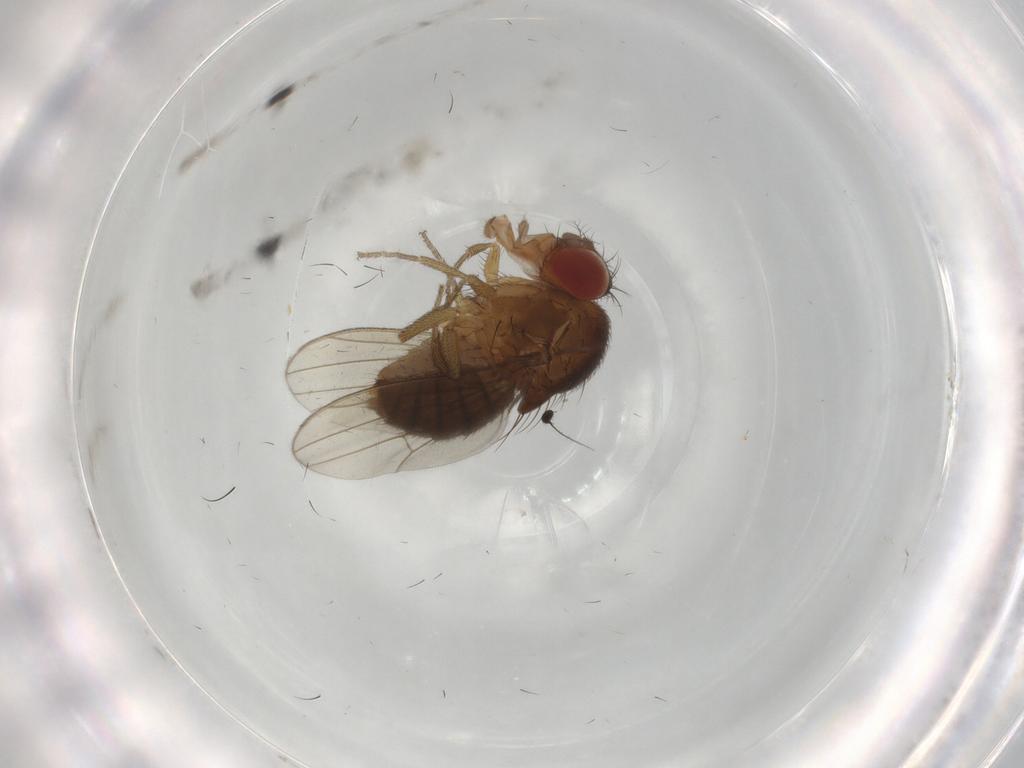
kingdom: Animalia
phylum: Arthropoda
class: Insecta
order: Diptera
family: Drosophilidae
